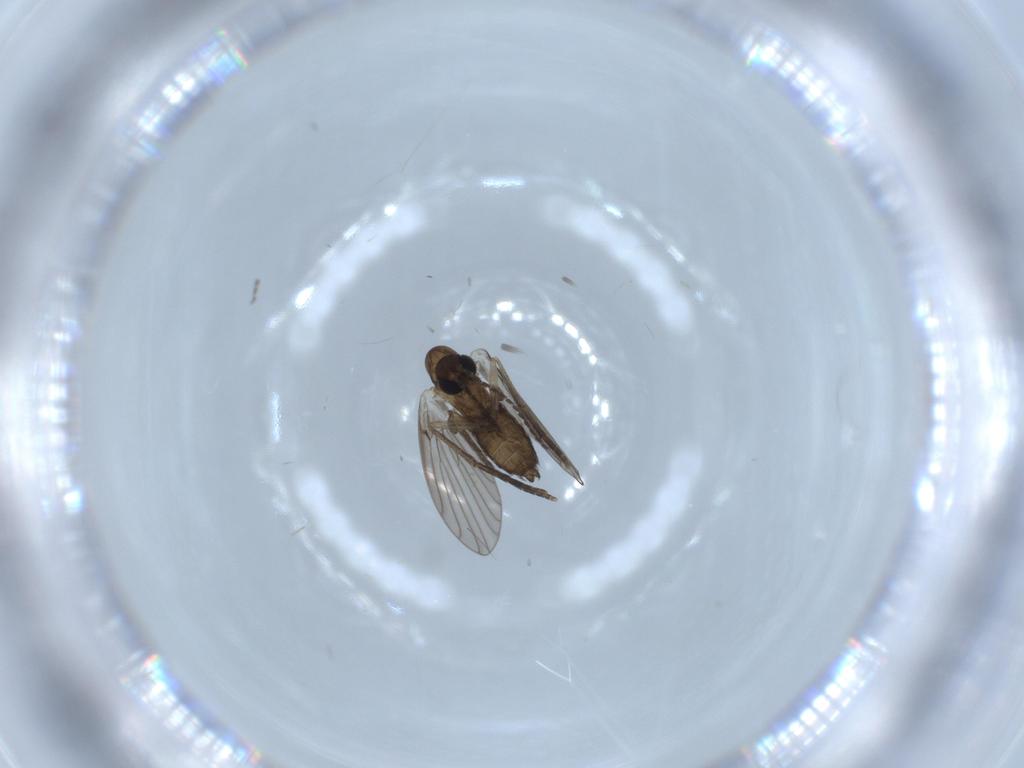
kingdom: Animalia
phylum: Arthropoda
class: Insecta
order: Diptera
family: Psychodidae
